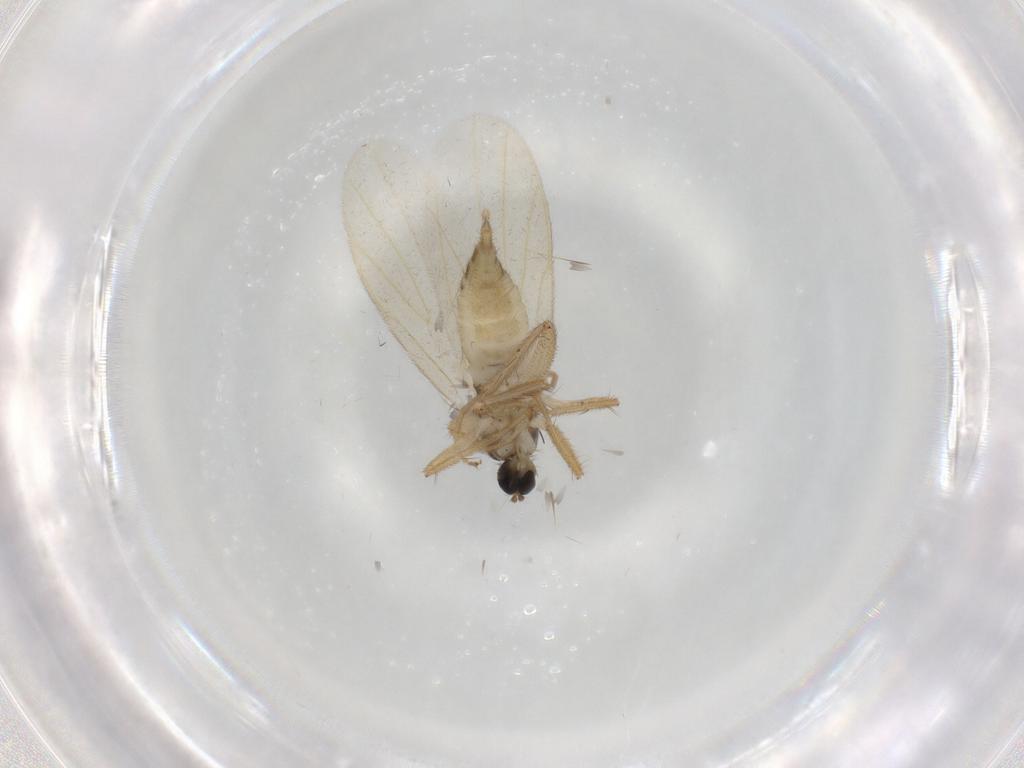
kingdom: Animalia
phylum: Arthropoda
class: Insecta
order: Diptera
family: Hybotidae
